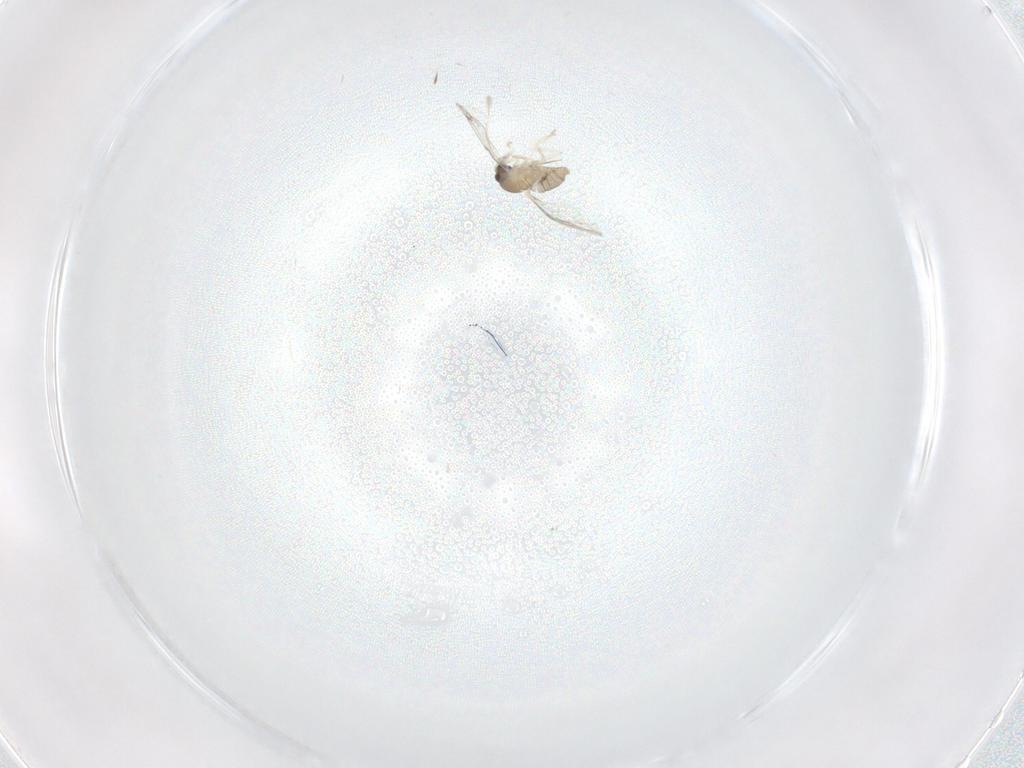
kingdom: Animalia
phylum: Arthropoda
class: Insecta
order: Diptera
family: Cecidomyiidae
